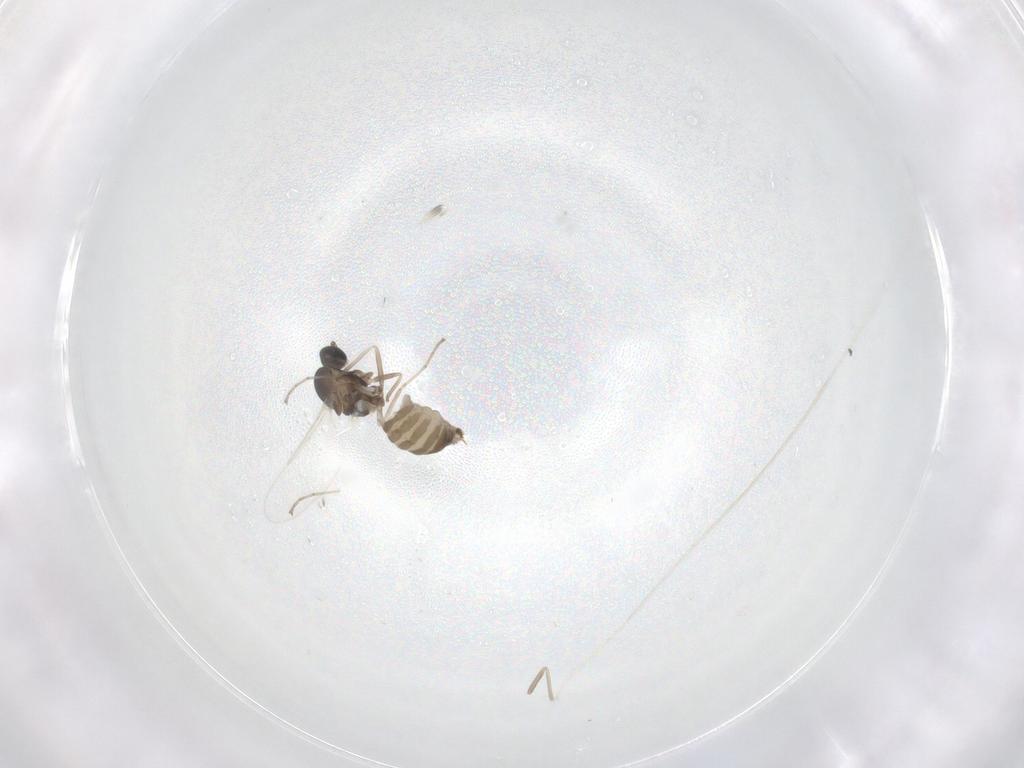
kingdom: Animalia
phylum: Arthropoda
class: Insecta
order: Diptera
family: Cecidomyiidae
